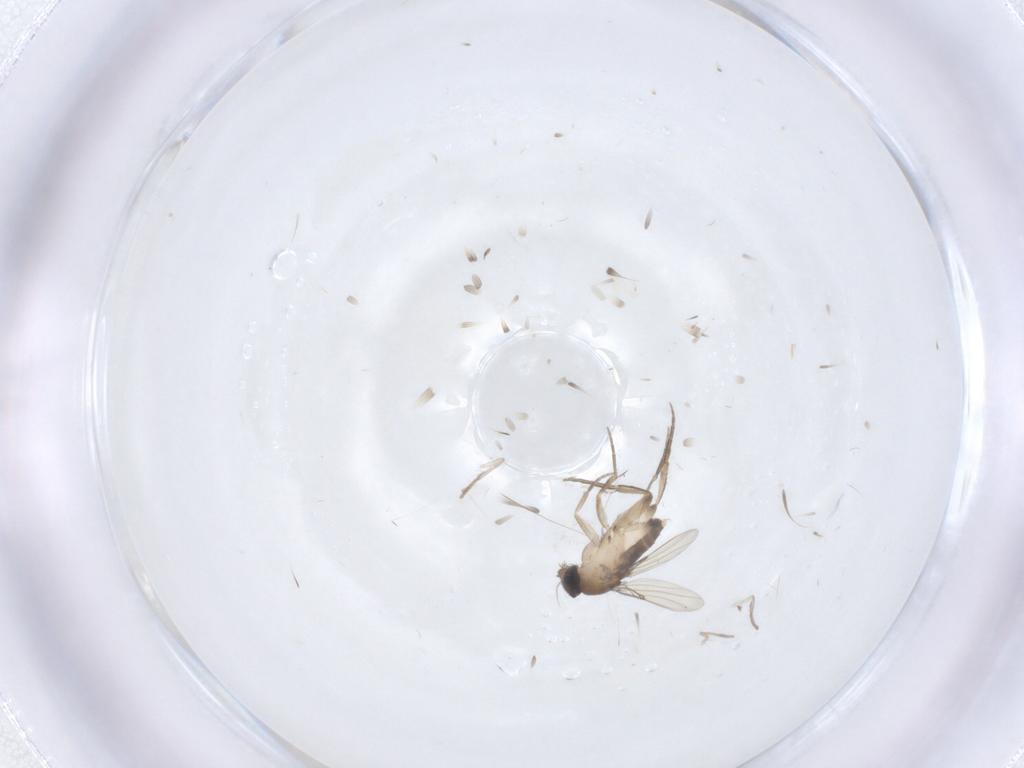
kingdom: Animalia
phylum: Arthropoda
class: Insecta
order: Diptera
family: Phoridae
